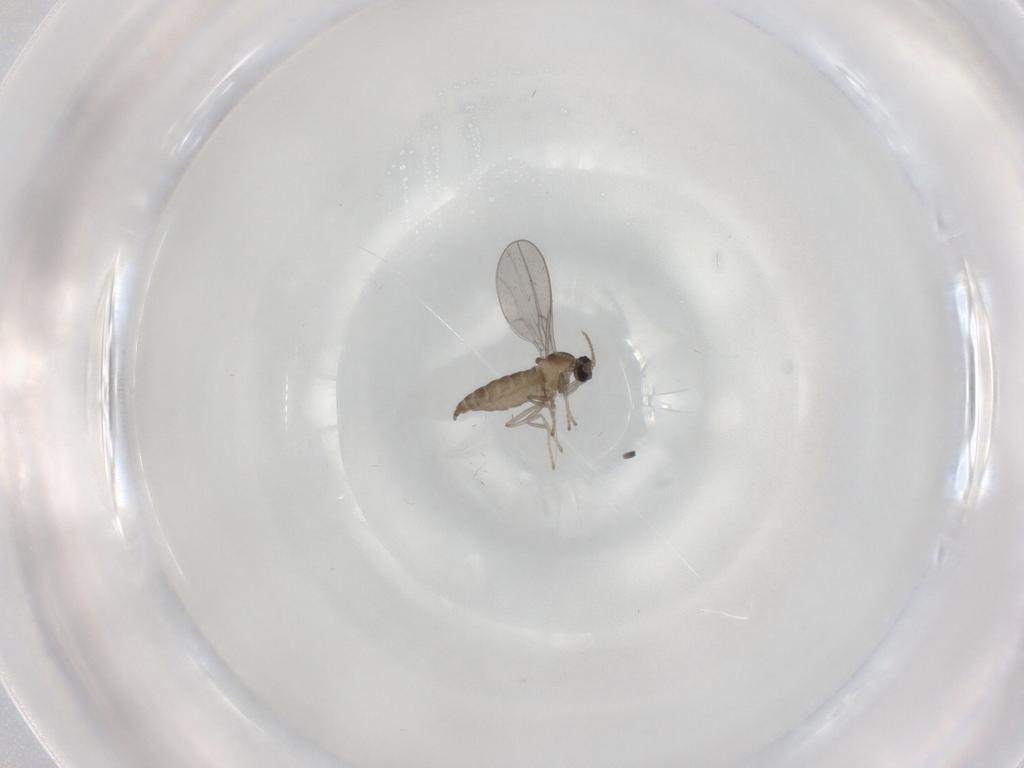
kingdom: Animalia
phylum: Arthropoda
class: Insecta
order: Diptera
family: Cecidomyiidae
